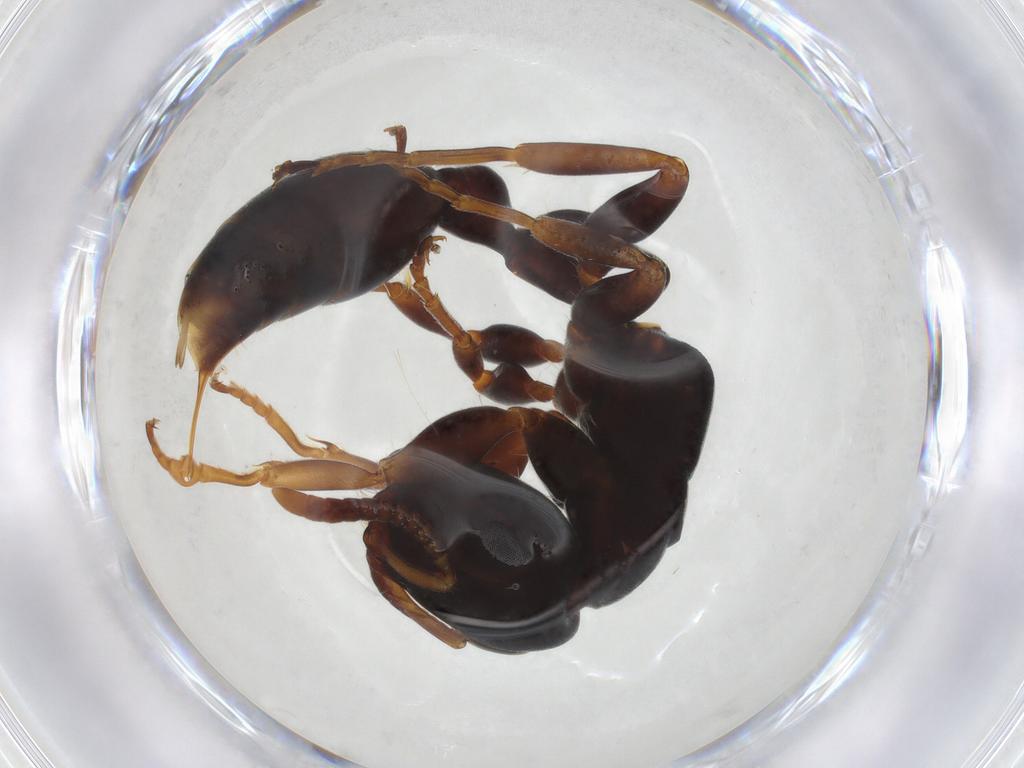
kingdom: Animalia
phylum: Arthropoda
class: Insecta
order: Hymenoptera
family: Formicidae
